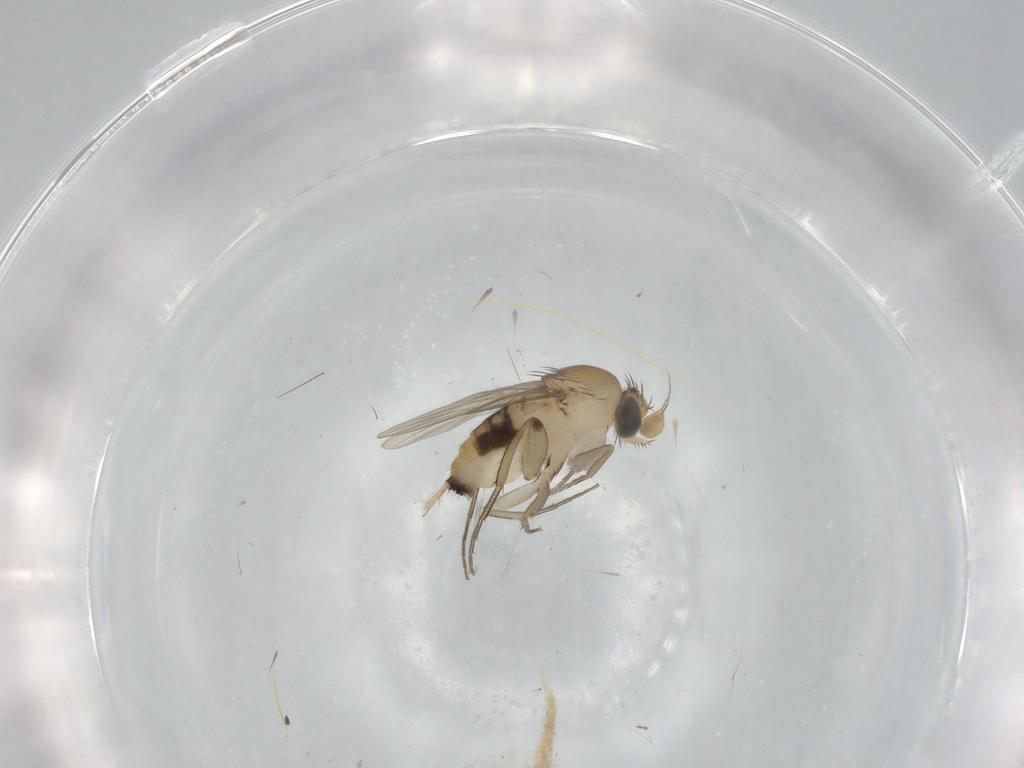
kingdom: Animalia
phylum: Arthropoda
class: Insecta
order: Diptera
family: Phoridae
